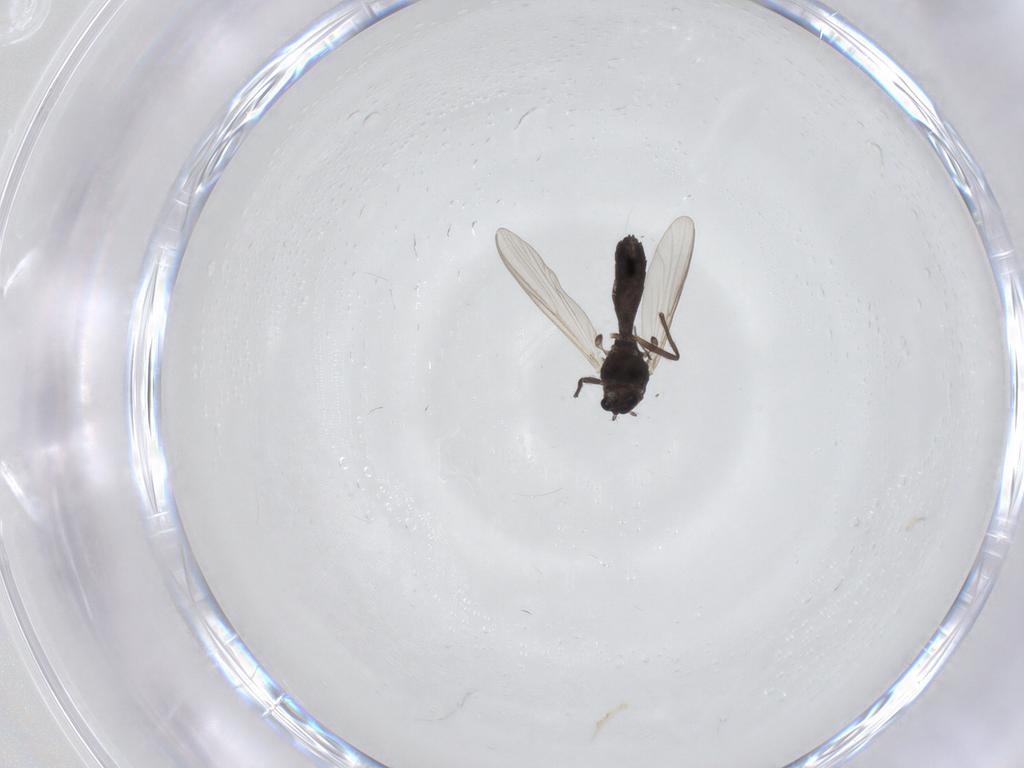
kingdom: Animalia
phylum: Arthropoda
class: Insecta
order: Diptera
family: Chironomidae
